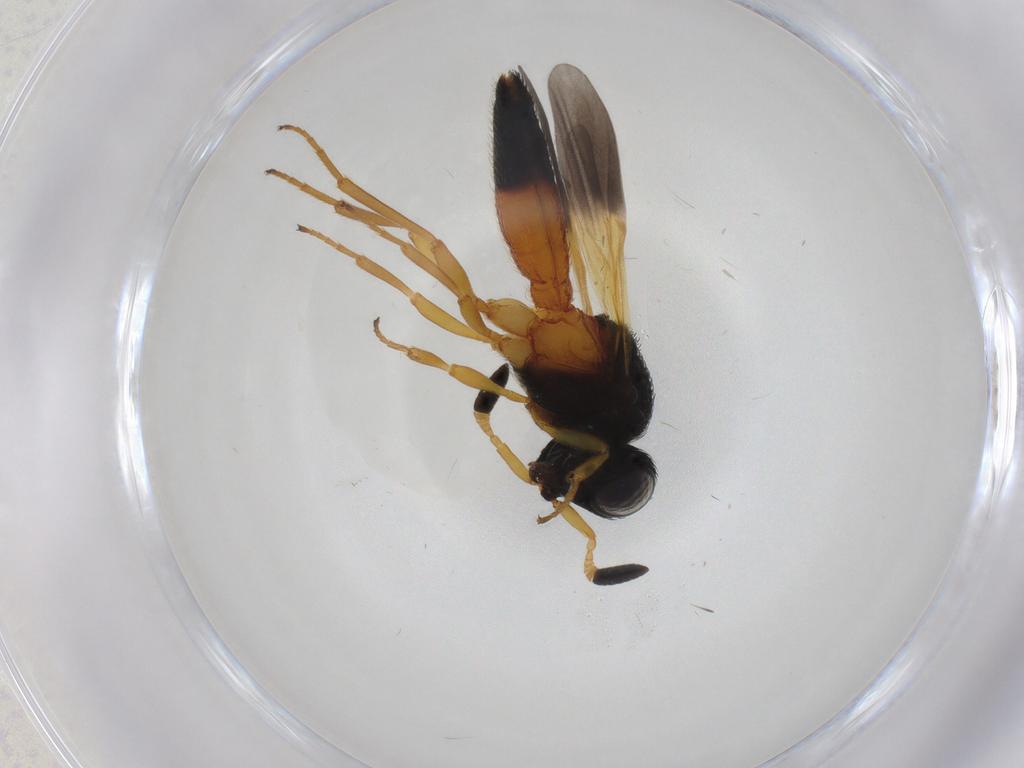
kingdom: Animalia
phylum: Arthropoda
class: Insecta
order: Hymenoptera
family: Scelionidae
